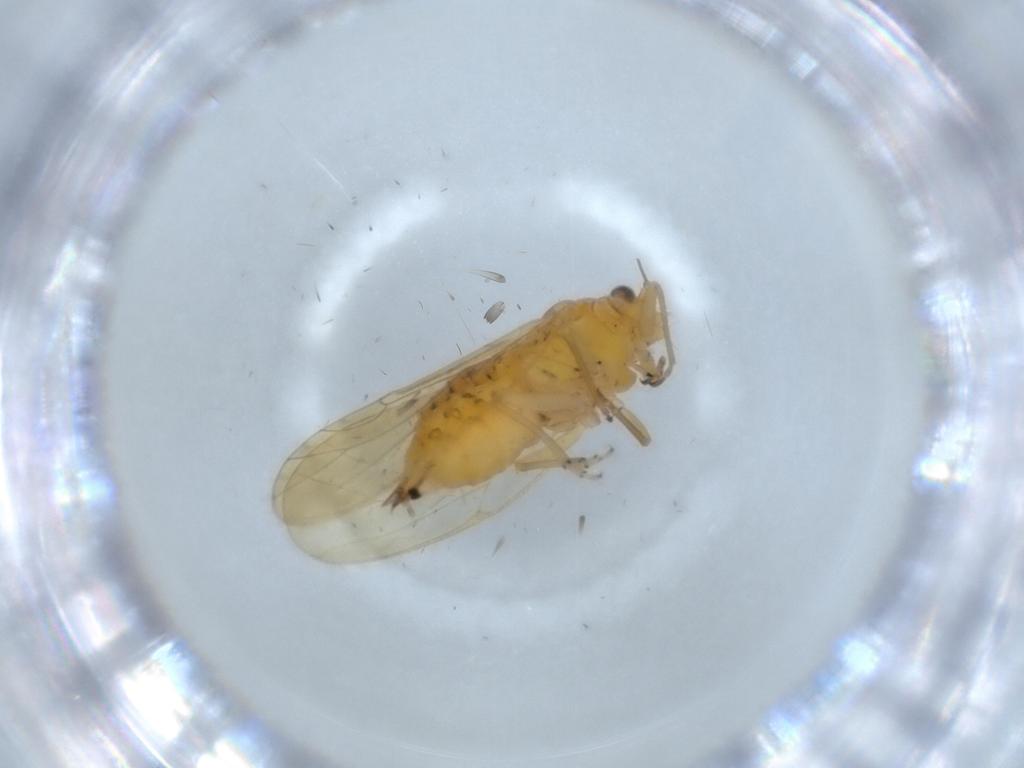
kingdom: Animalia
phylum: Arthropoda
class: Insecta
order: Hemiptera
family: Psyllidae
